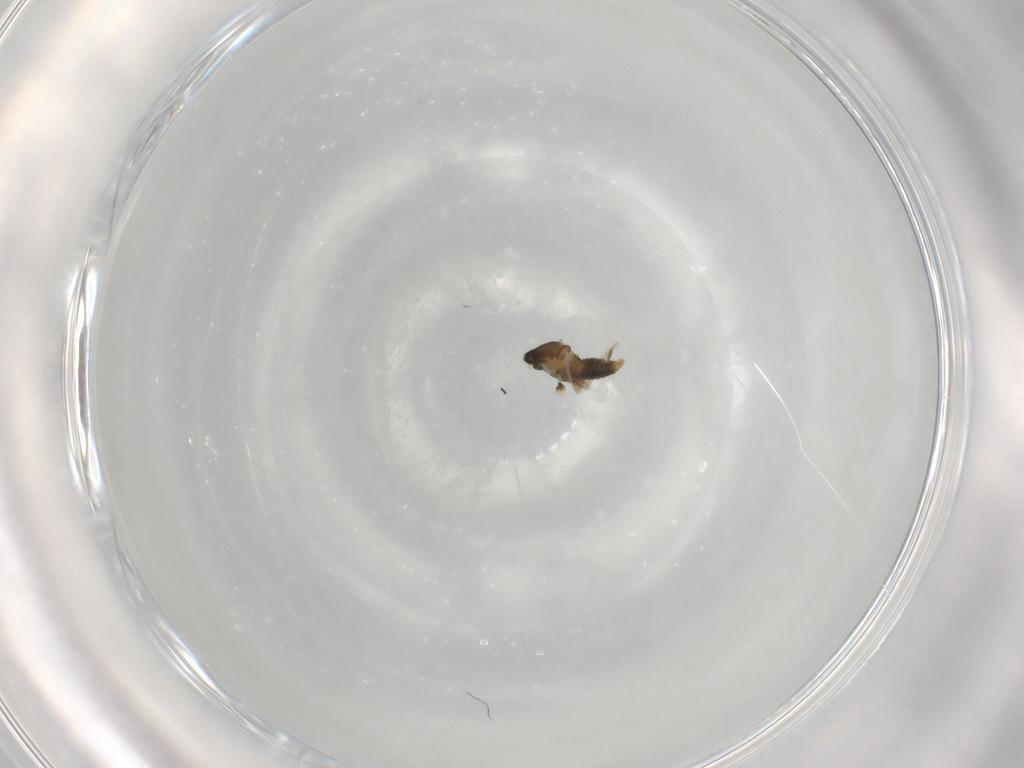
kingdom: Animalia
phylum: Arthropoda
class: Insecta
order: Diptera
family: Cecidomyiidae
